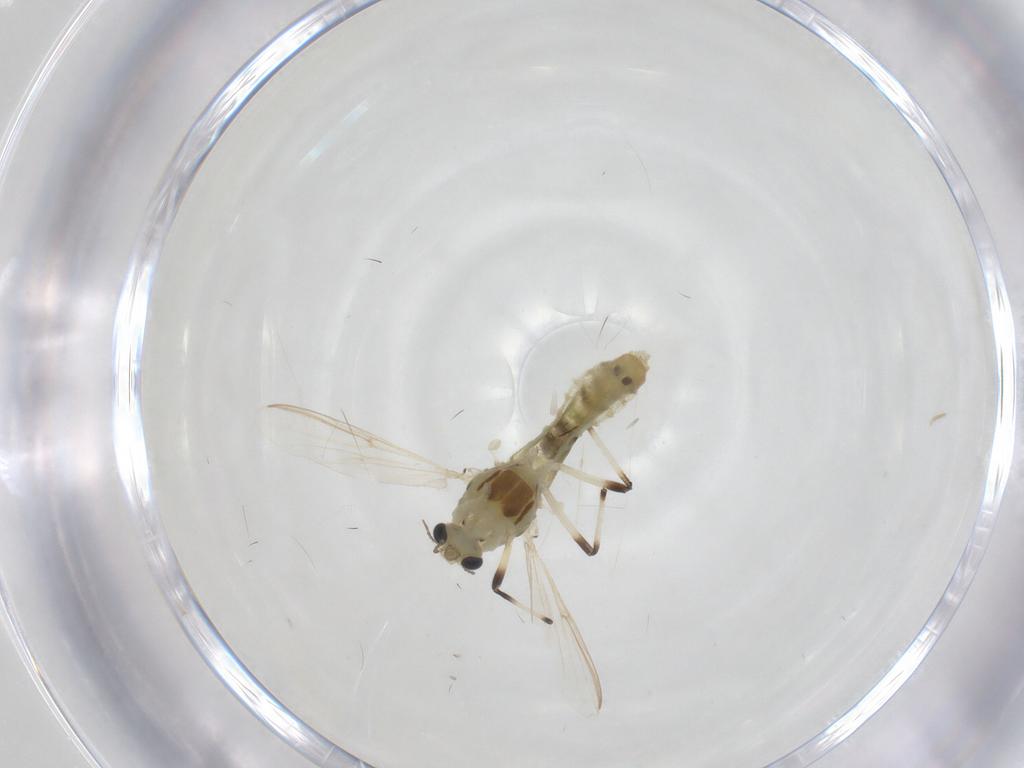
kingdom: Animalia
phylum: Arthropoda
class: Insecta
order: Diptera
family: Chironomidae
